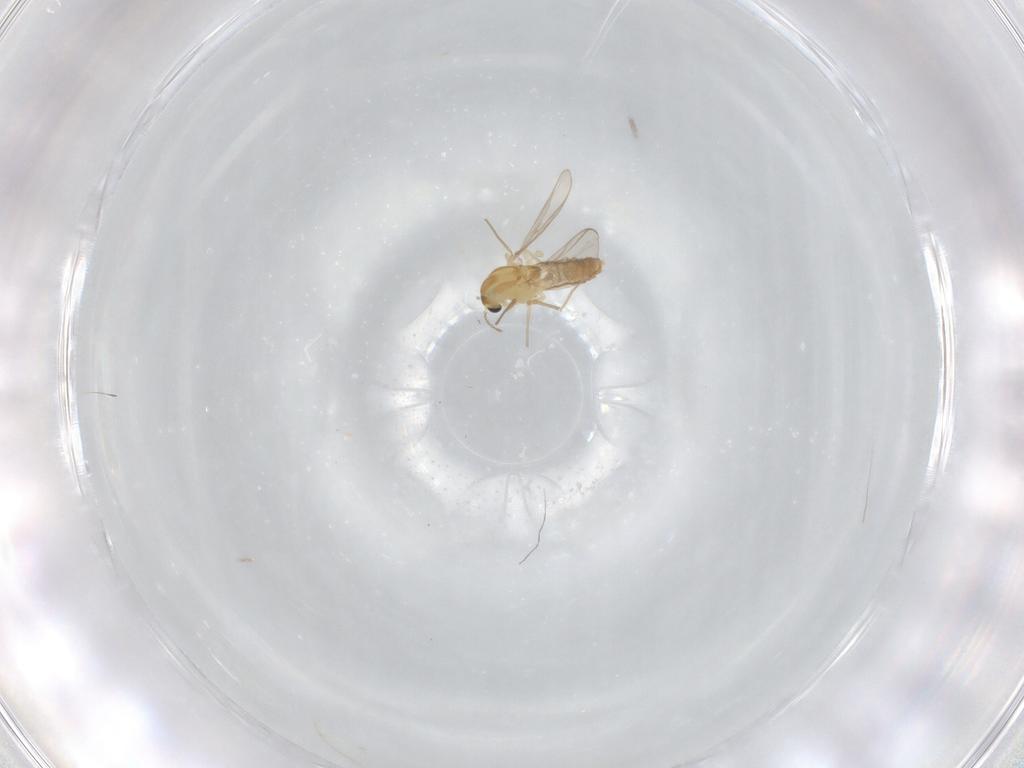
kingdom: Animalia
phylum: Arthropoda
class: Insecta
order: Diptera
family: Chironomidae
